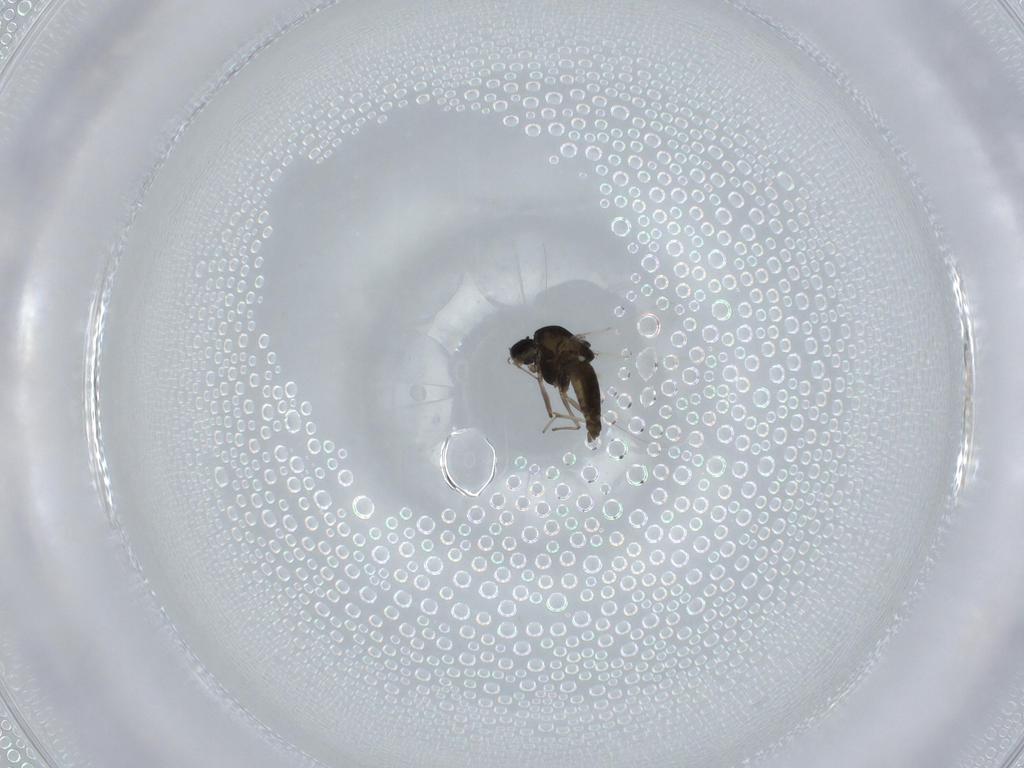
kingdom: Animalia
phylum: Arthropoda
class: Insecta
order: Diptera
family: Chironomidae
